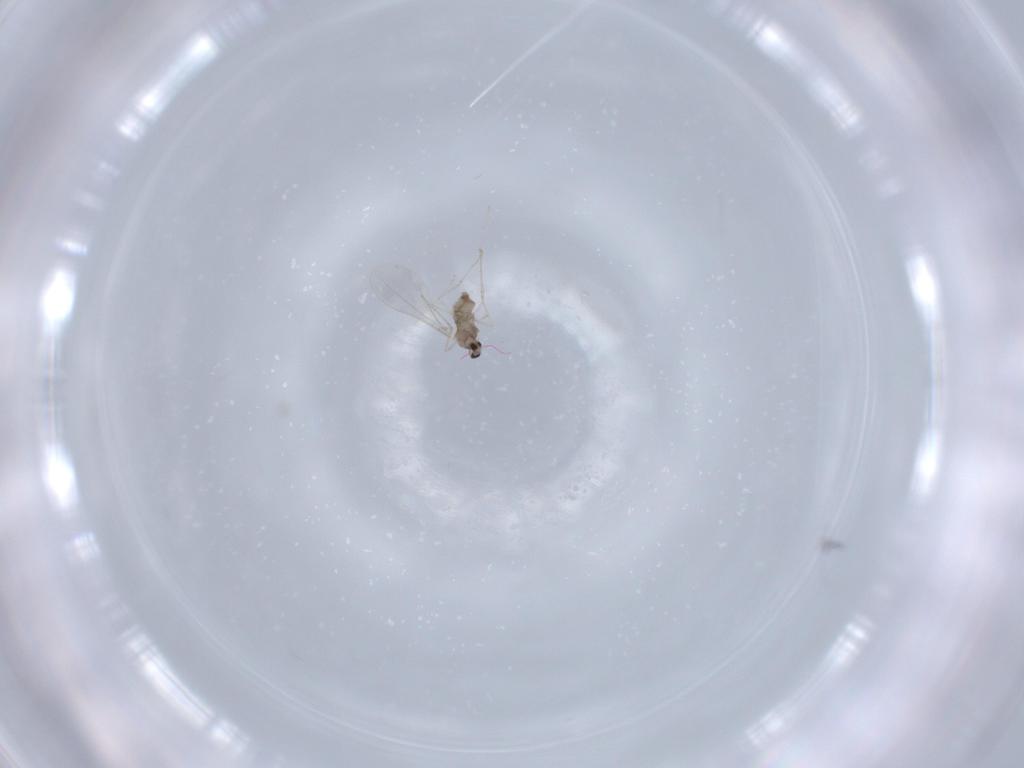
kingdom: Animalia
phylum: Arthropoda
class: Insecta
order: Diptera
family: Cecidomyiidae
